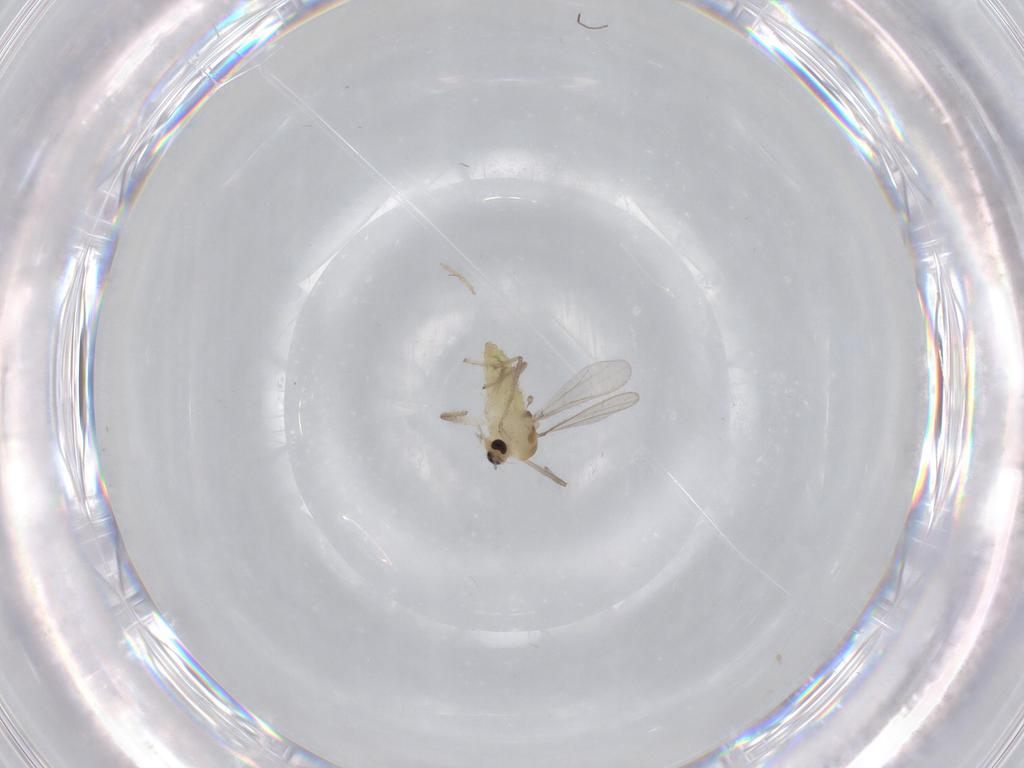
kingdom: Animalia
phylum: Arthropoda
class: Insecta
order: Diptera
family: Chironomidae
